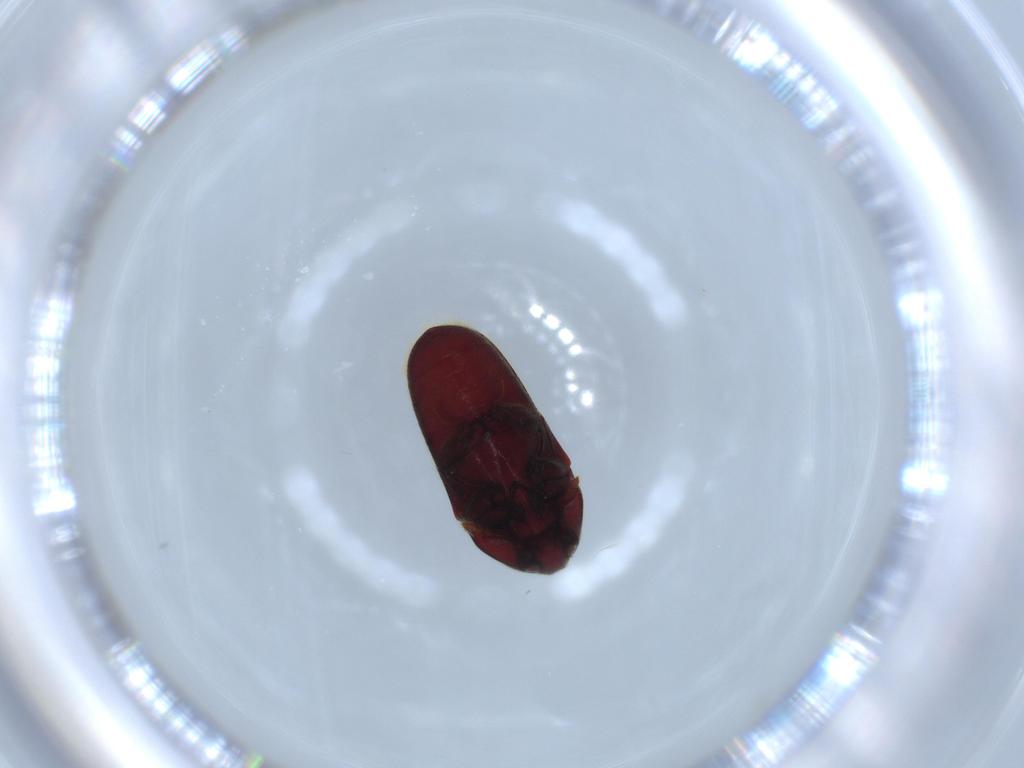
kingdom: Animalia
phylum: Arthropoda
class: Insecta
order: Coleoptera
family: Throscidae
